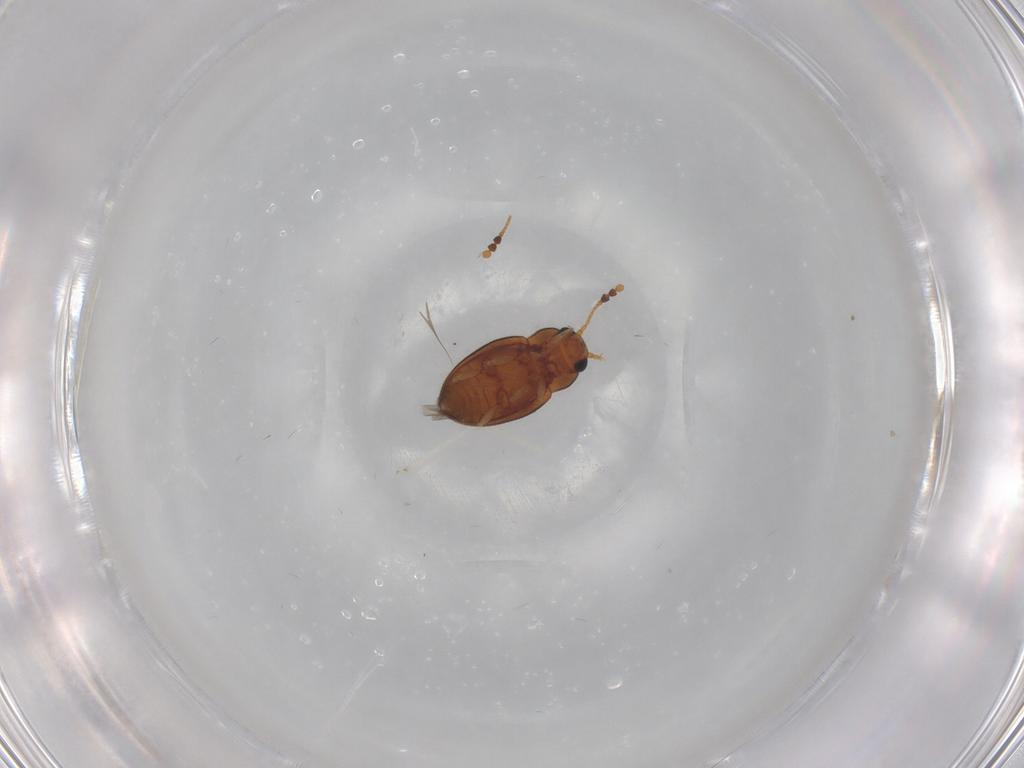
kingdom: Animalia
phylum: Arthropoda
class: Insecta
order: Coleoptera
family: Erotylidae
